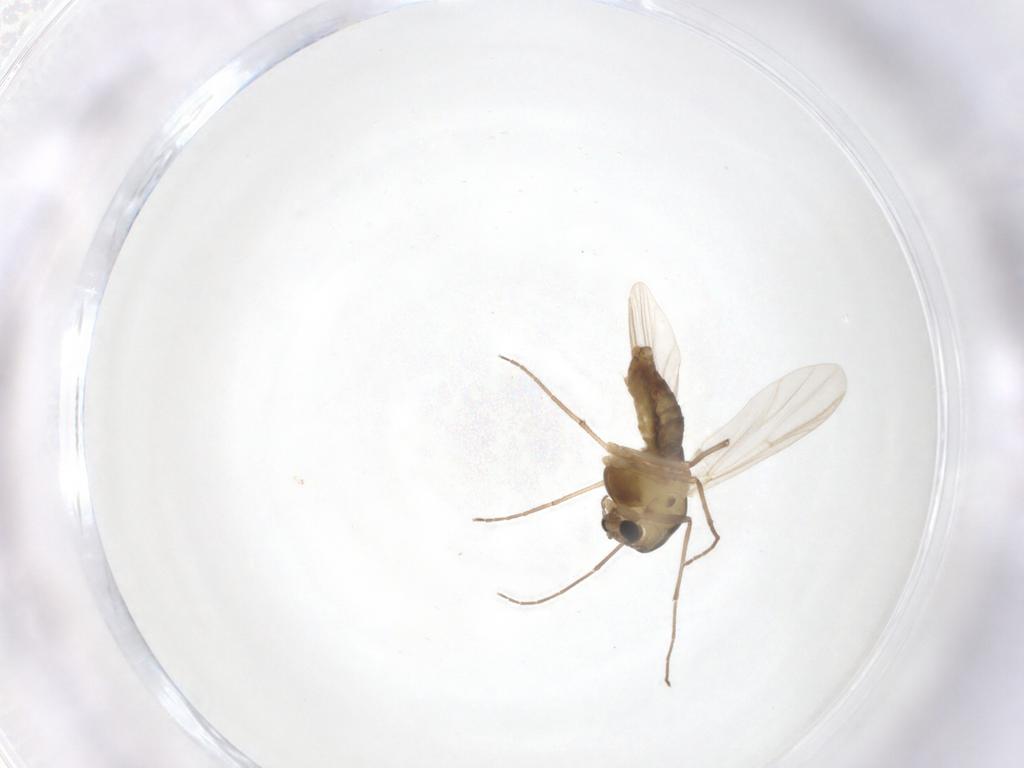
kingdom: Animalia
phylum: Arthropoda
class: Insecta
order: Diptera
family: Chironomidae
